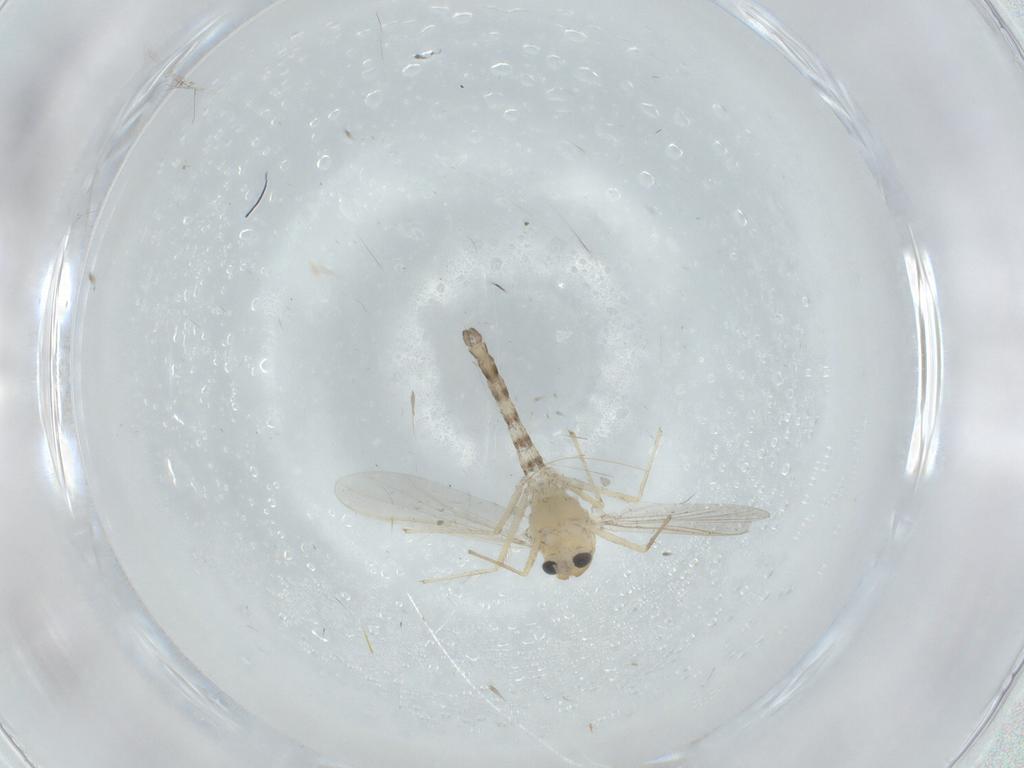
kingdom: Animalia
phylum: Arthropoda
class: Insecta
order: Diptera
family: Chironomidae
